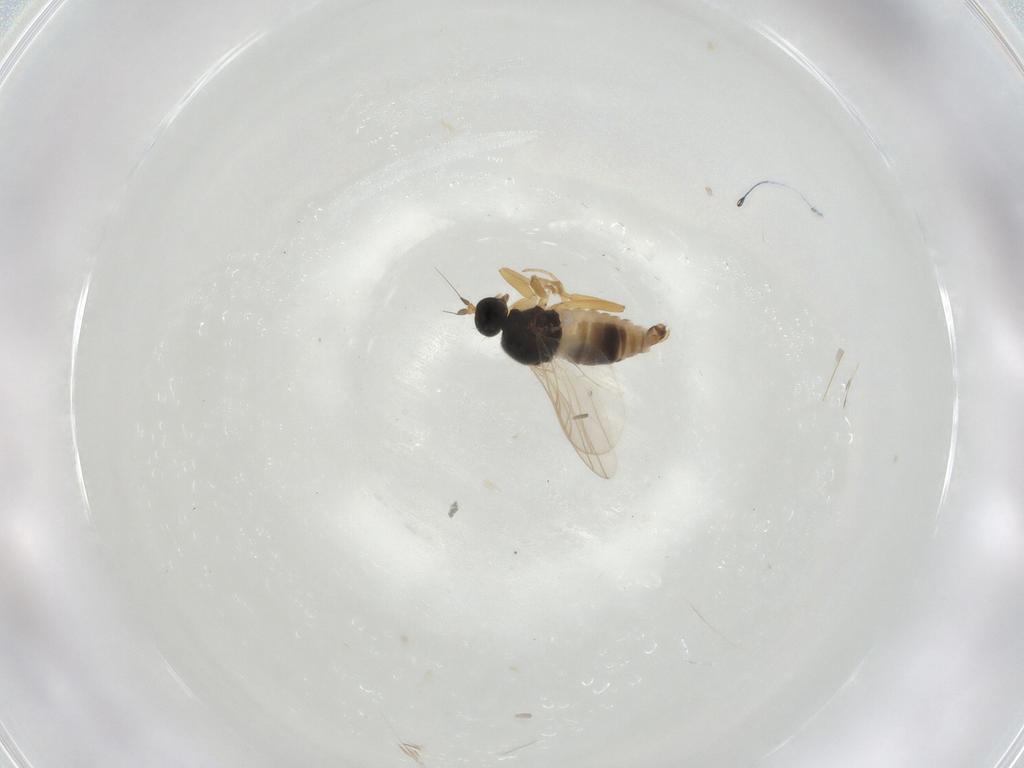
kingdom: Animalia
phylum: Arthropoda
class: Insecta
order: Diptera
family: Hybotidae
